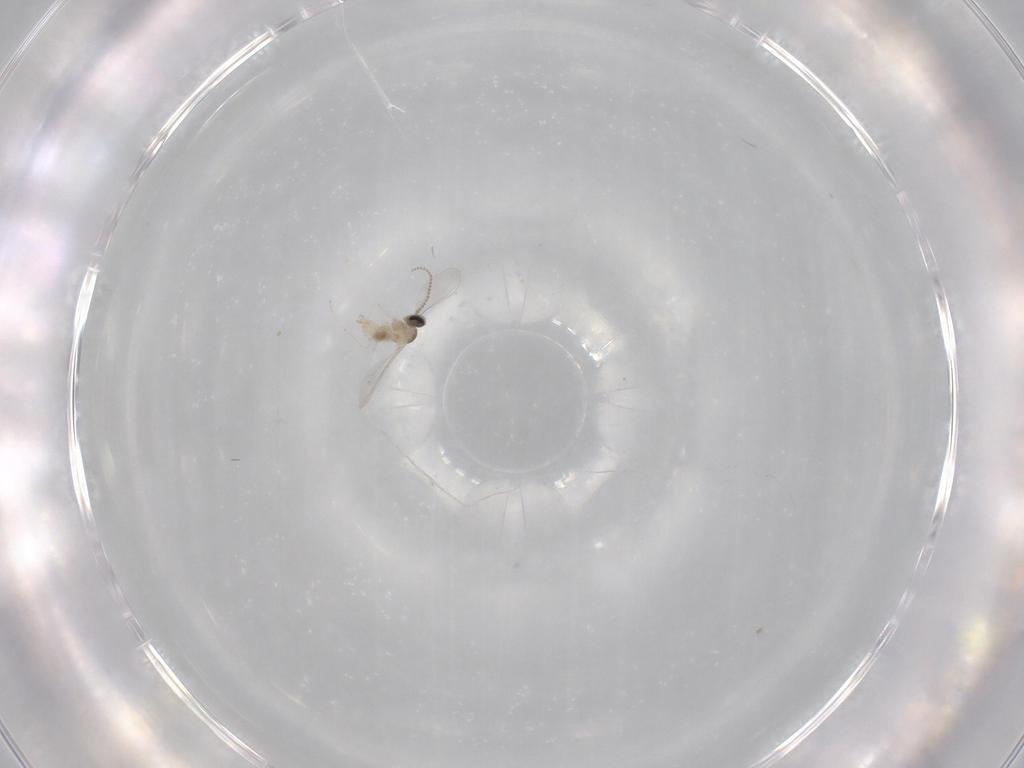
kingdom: Animalia
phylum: Arthropoda
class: Insecta
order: Diptera
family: Cecidomyiidae
